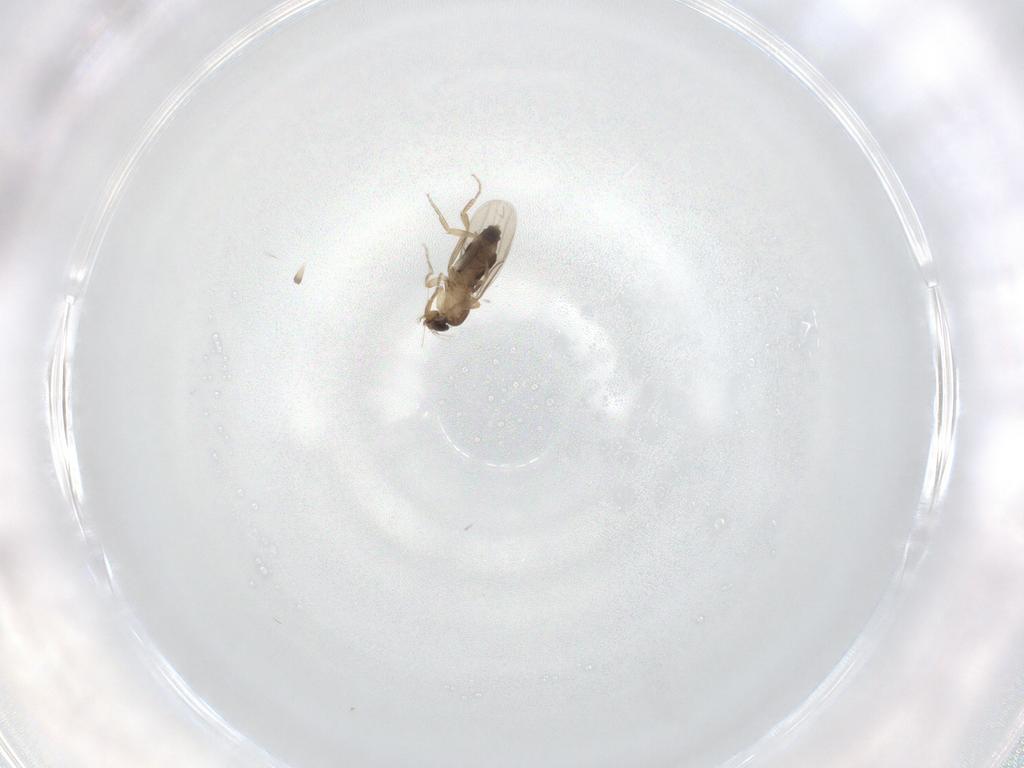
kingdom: Animalia
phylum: Arthropoda
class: Insecta
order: Diptera
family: Phoridae
